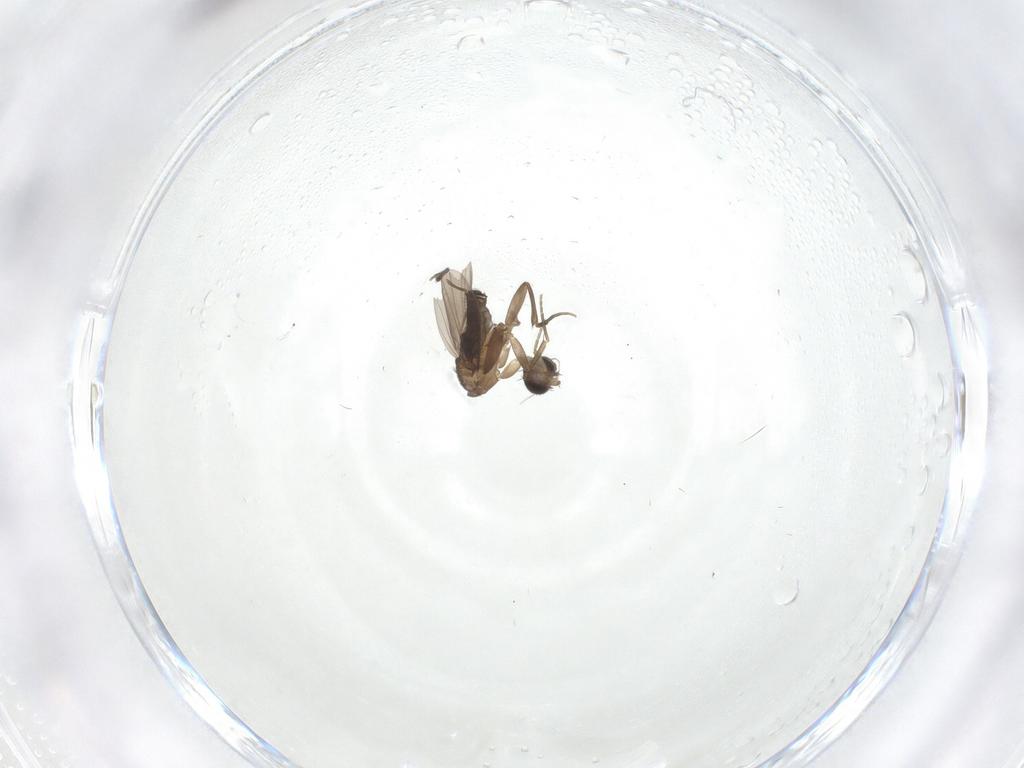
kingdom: Animalia
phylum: Arthropoda
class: Insecta
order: Diptera
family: Phoridae
